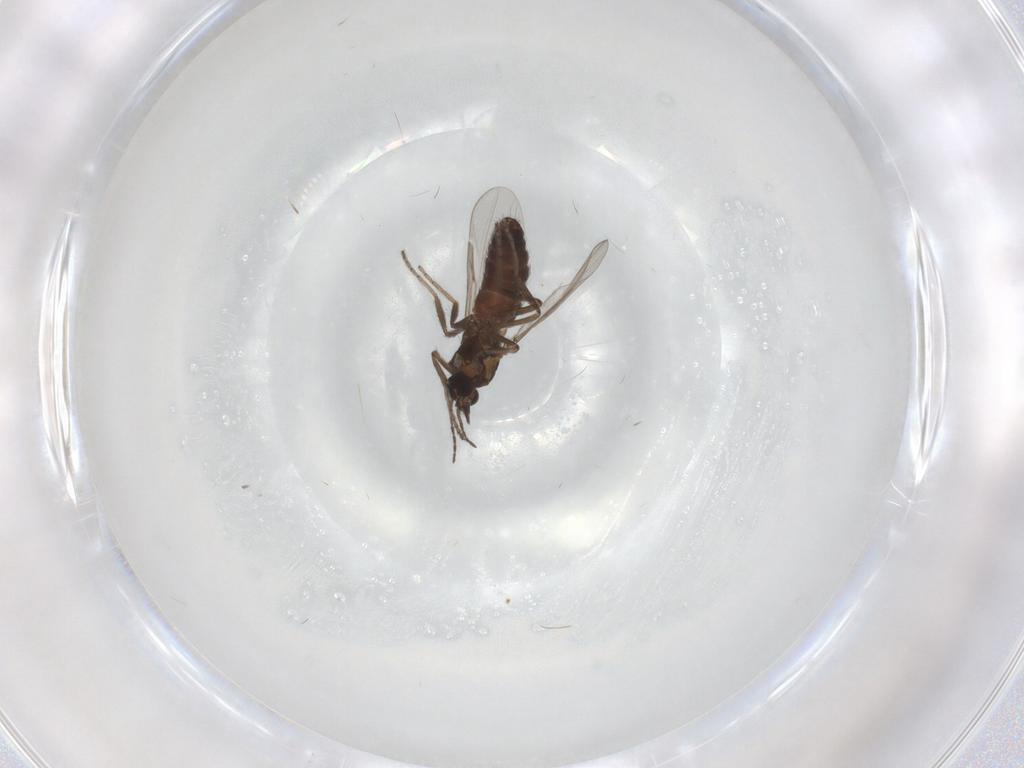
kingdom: Animalia
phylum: Arthropoda
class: Insecta
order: Diptera
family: Ceratopogonidae
